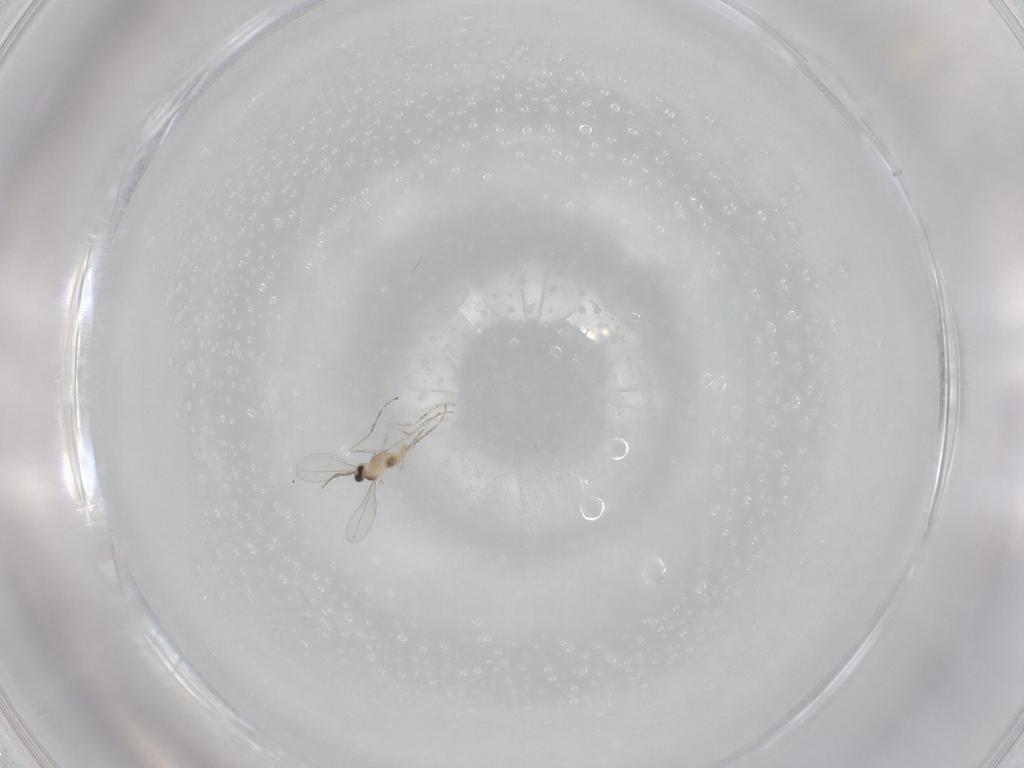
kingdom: Animalia
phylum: Arthropoda
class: Insecta
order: Diptera
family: Cecidomyiidae
